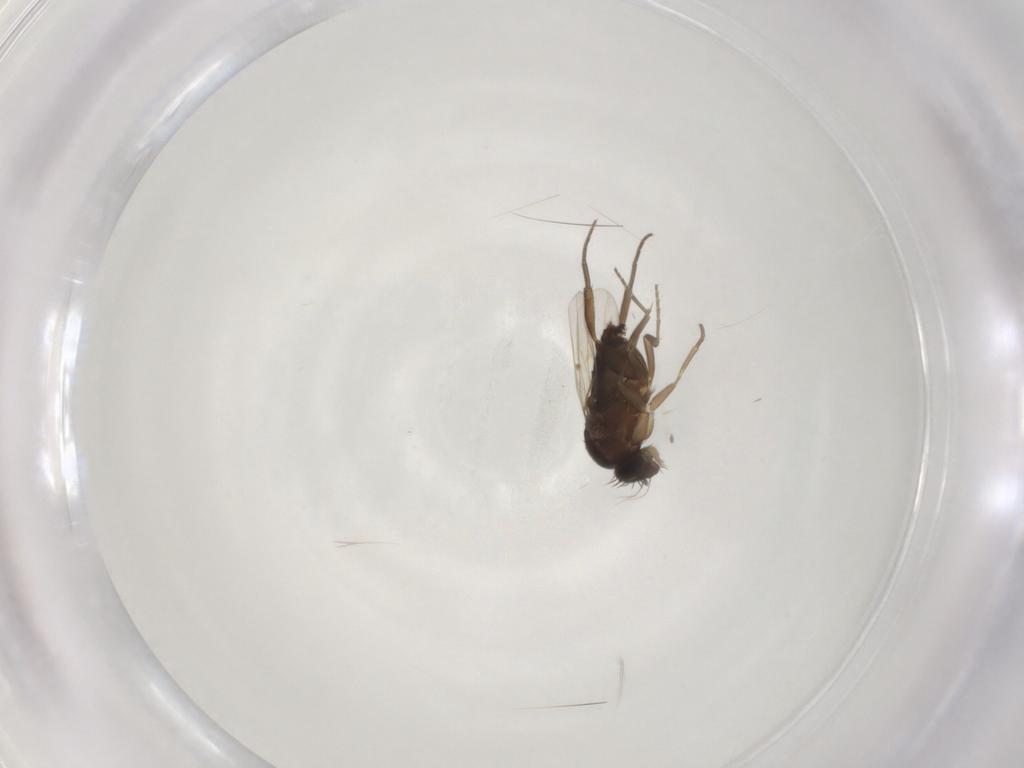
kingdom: Animalia
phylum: Arthropoda
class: Insecta
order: Diptera
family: Phoridae
